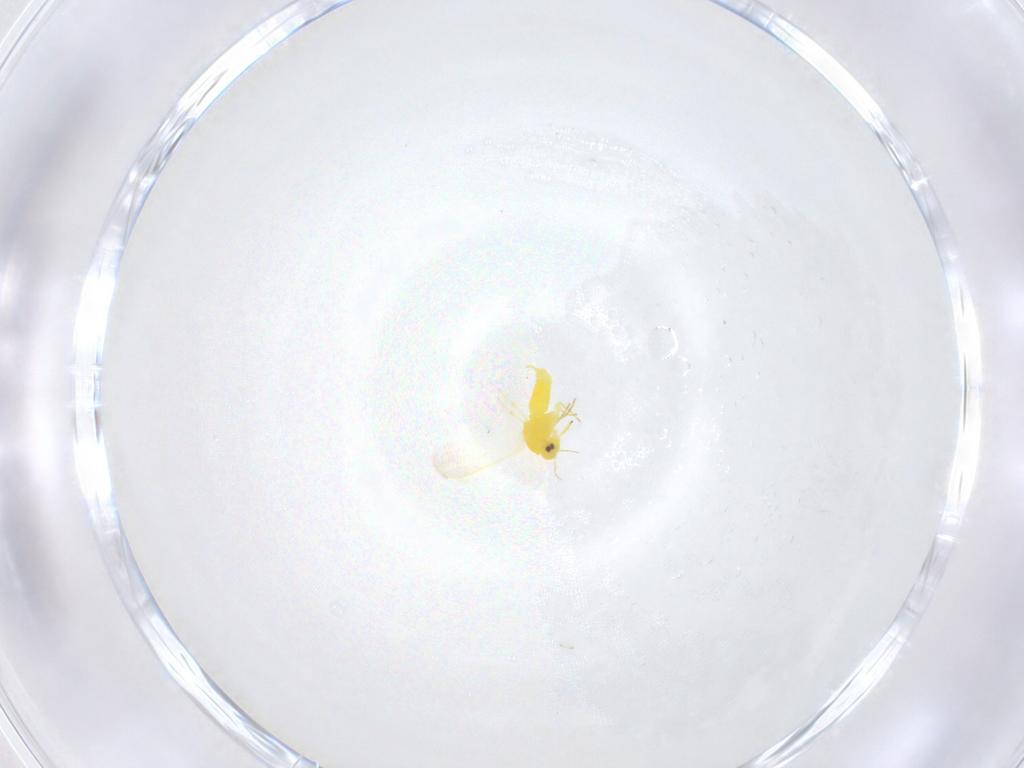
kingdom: Animalia
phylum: Arthropoda
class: Insecta
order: Hemiptera
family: Aleyrodidae
